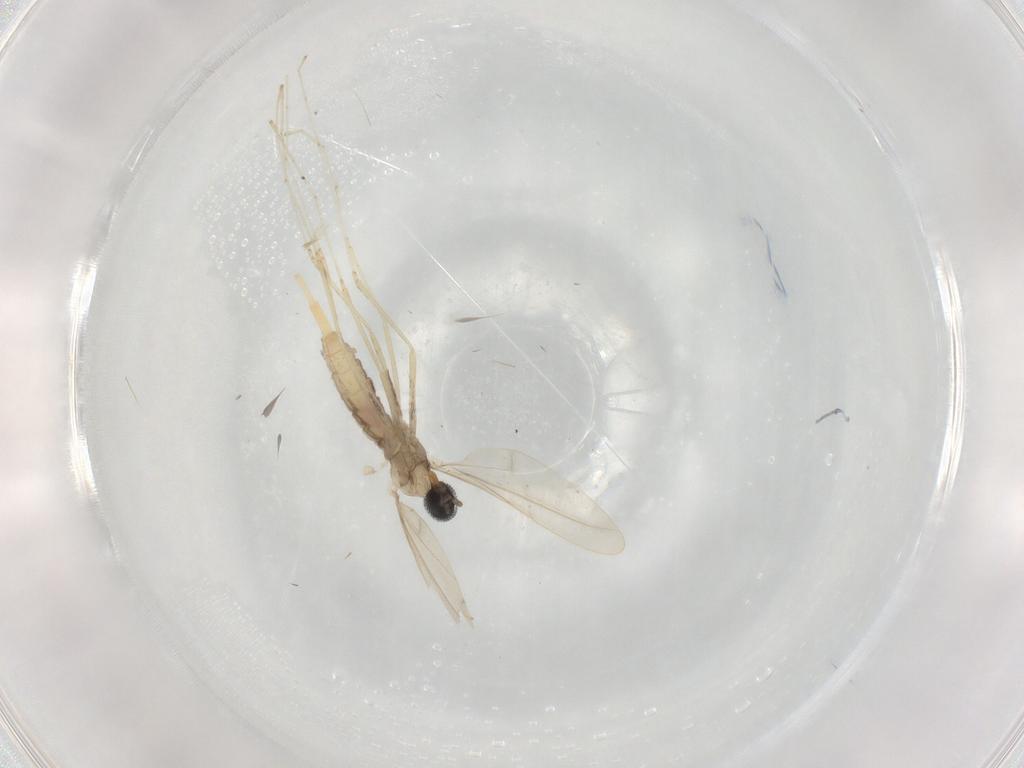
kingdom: Animalia
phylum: Arthropoda
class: Insecta
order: Diptera
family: Cecidomyiidae
